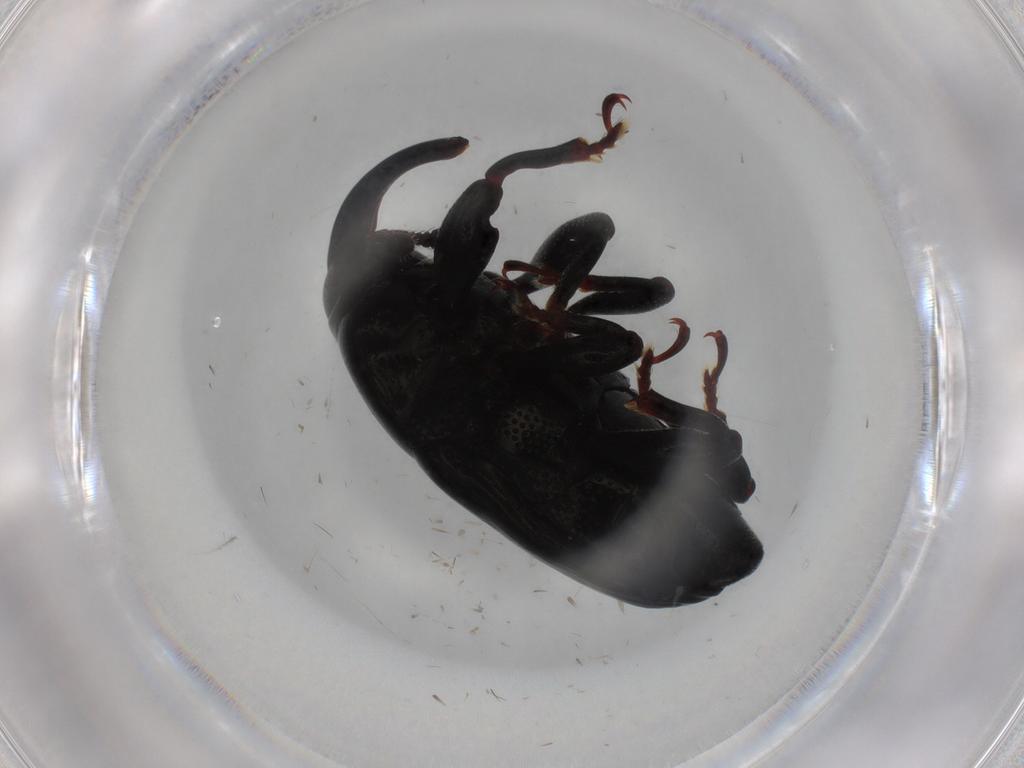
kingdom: Animalia
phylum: Arthropoda
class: Insecta
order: Coleoptera
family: Curculionidae
